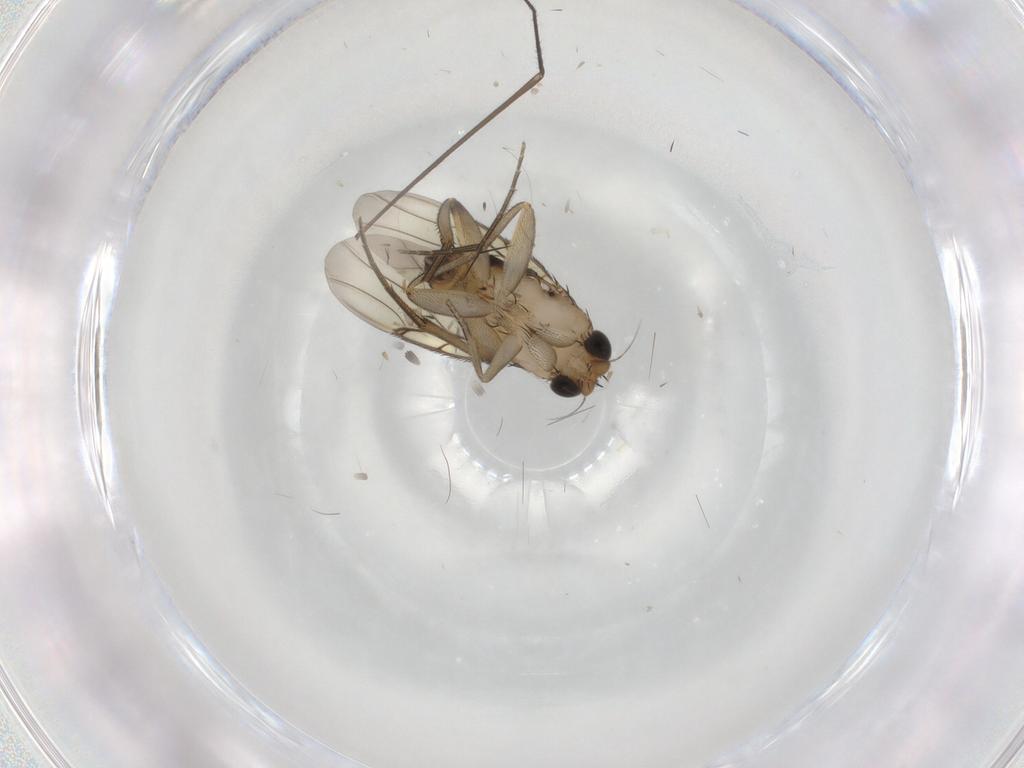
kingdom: Animalia
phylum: Arthropoda
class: Insecta
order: Diptera
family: Phoridae
